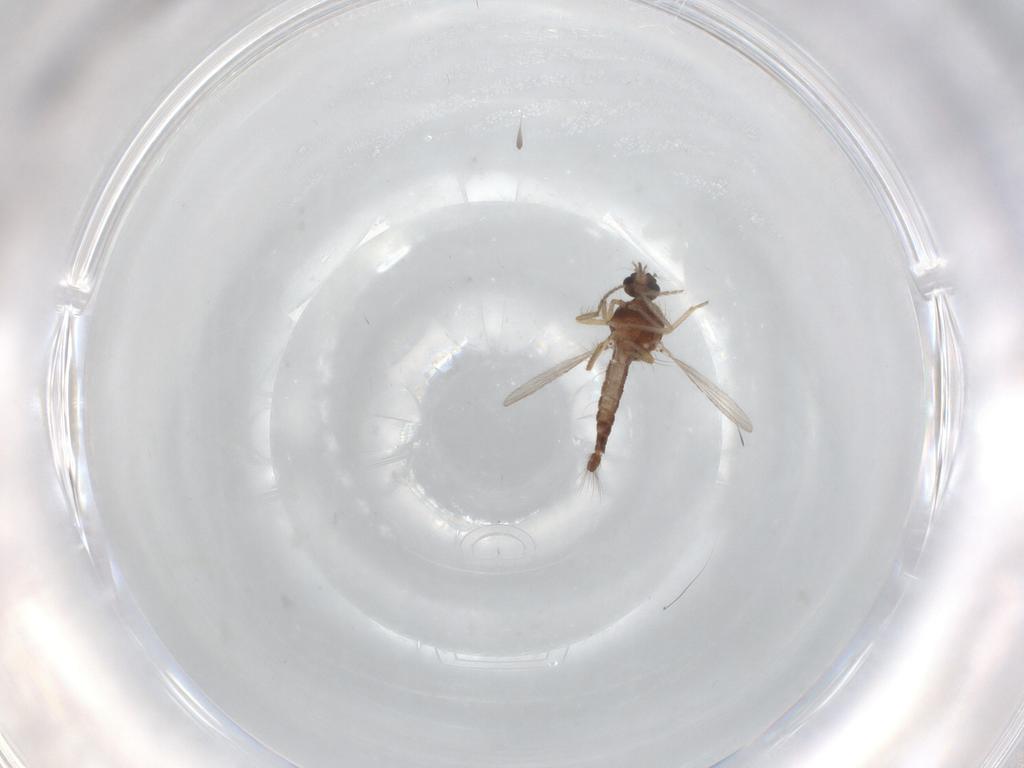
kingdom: Animalia
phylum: Arthropoda
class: Insecta
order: Diptera
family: Ceratopogonidae
